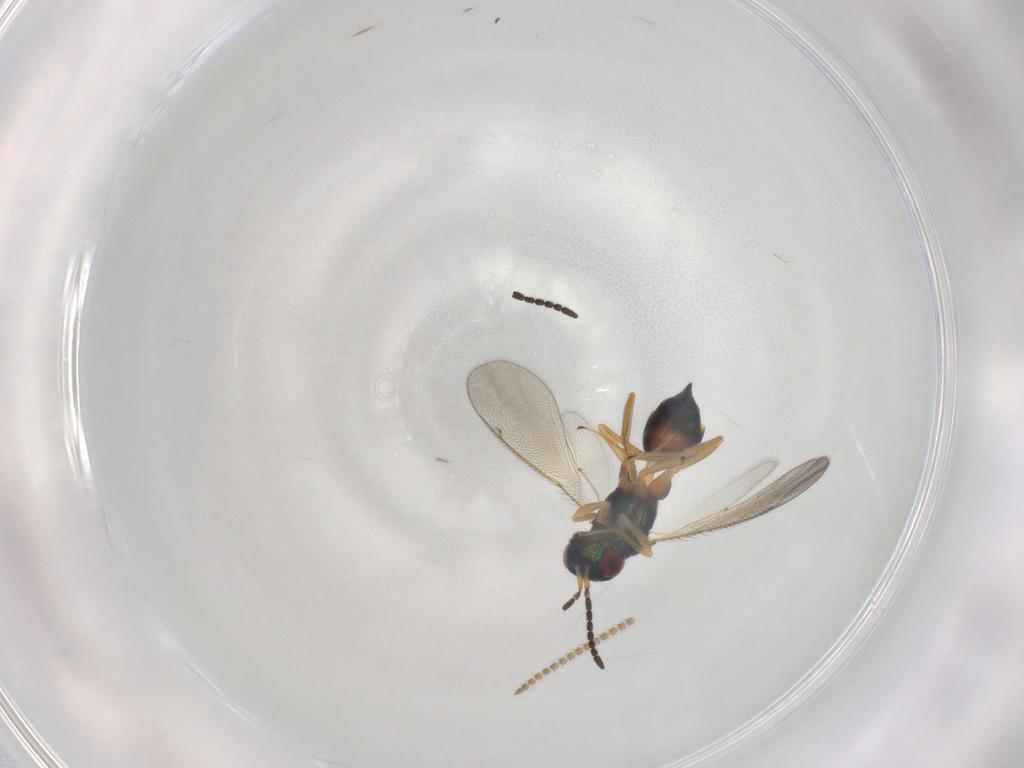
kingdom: Animalia
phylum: Arthropoda
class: Insecta
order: Hymenoptera
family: Tetracampidae
